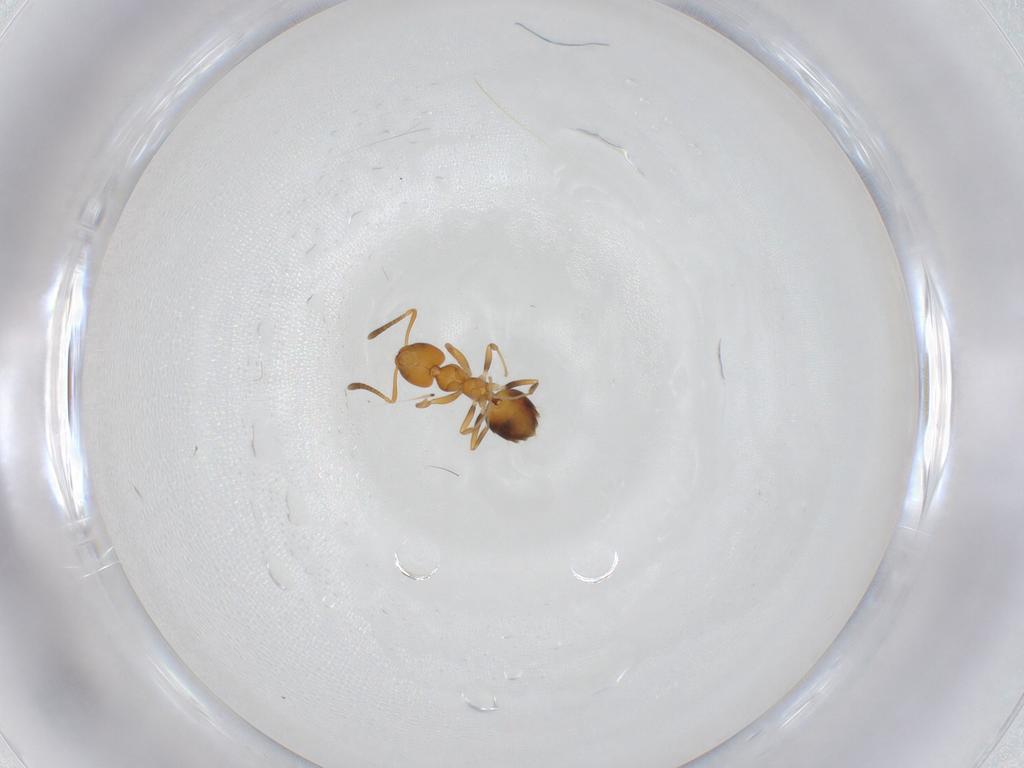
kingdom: Animalia
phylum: Arthropoda
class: Insecta
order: Hymenoptera
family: Formicidae
